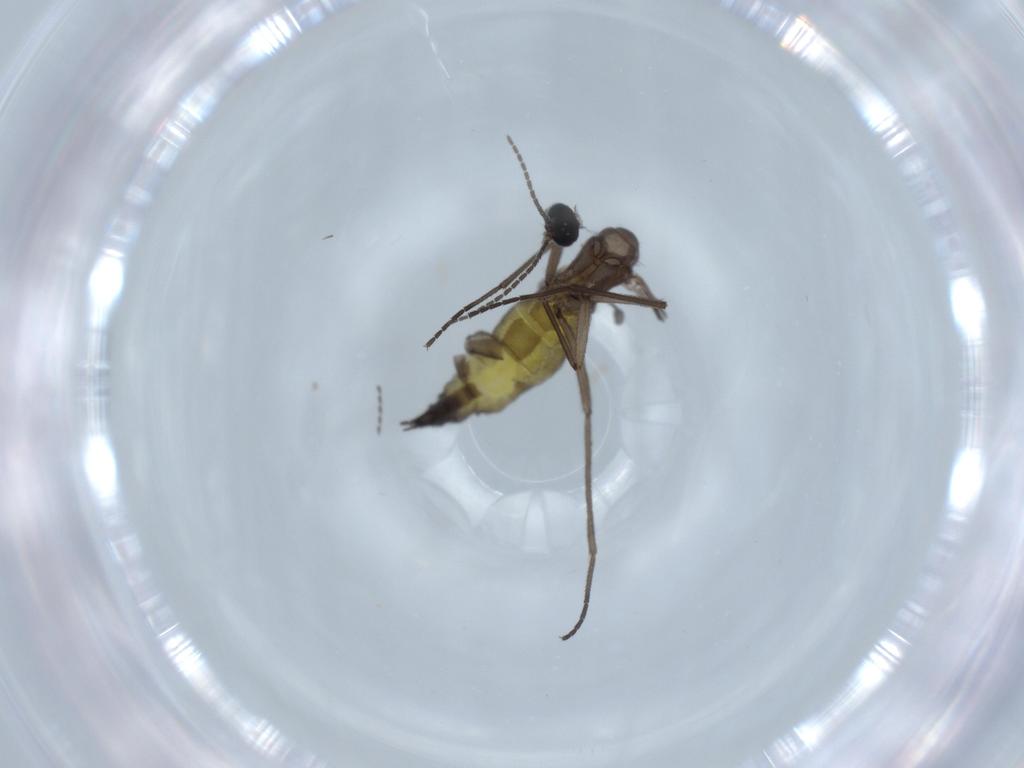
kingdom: Animalia
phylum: Arthropoda
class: Insecta
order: Diptera
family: Sciaridae
